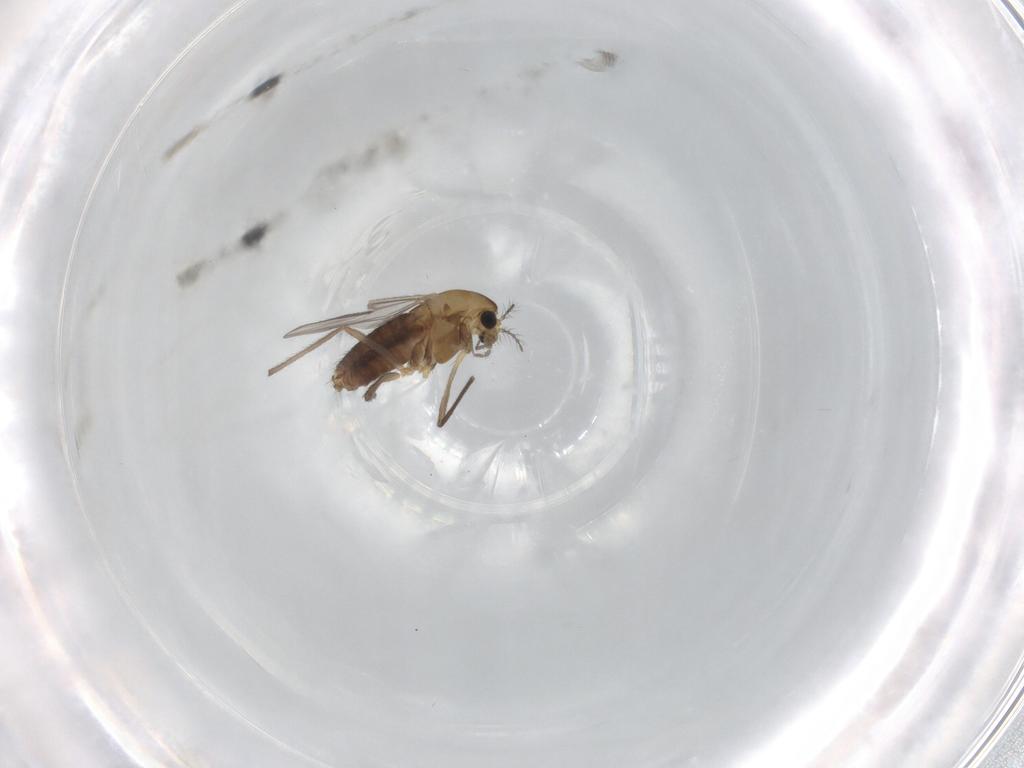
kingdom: Animalia
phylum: Arthropoda
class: Insecta
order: Diptera
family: Chironomidae
